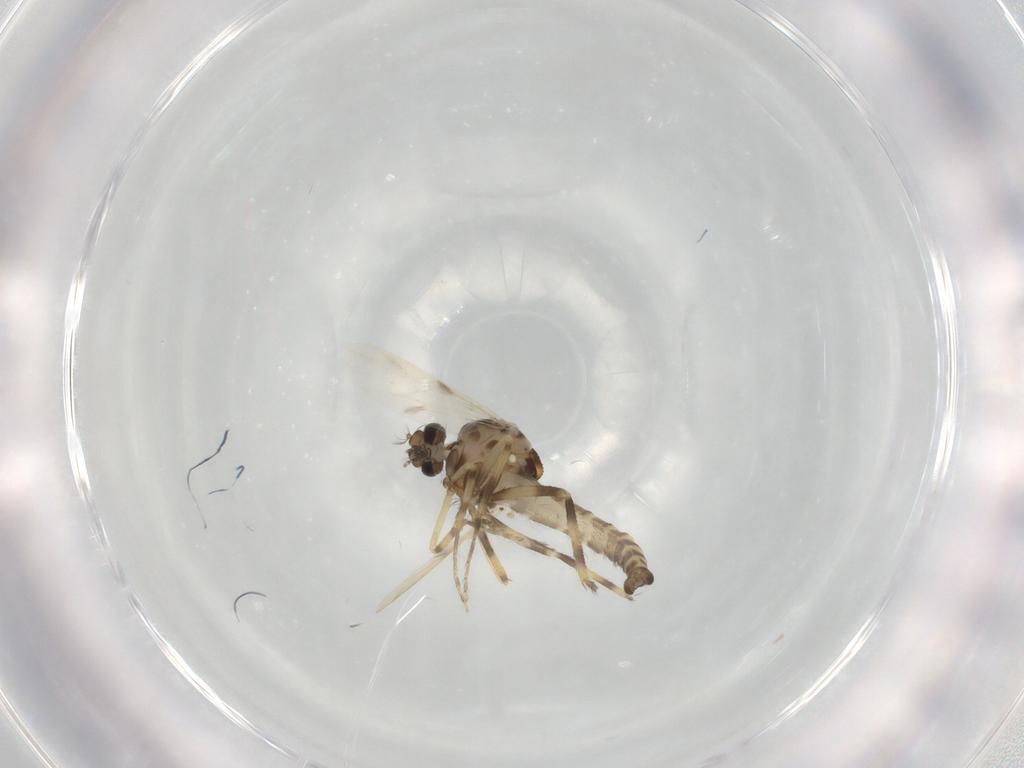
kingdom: Animalia
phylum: Arthropoda
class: Insecta
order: Diptera
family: Ceratopogonidae
